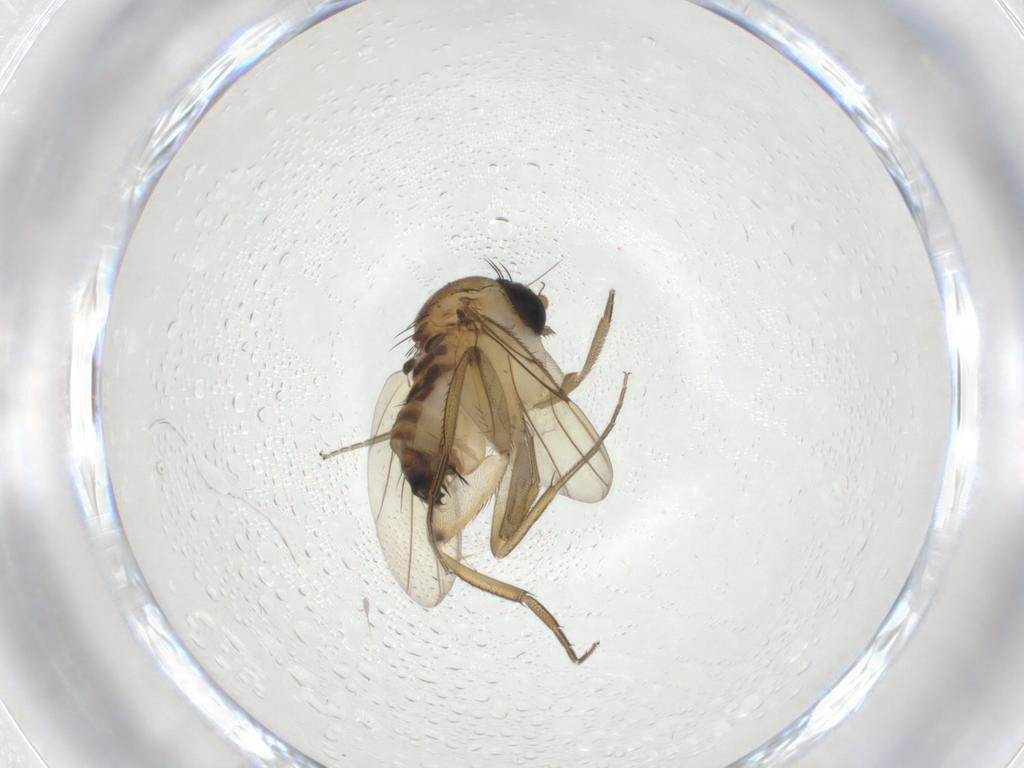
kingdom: Animalia
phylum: Arthropoda
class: Insecta
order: Diptera
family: Phoridae
